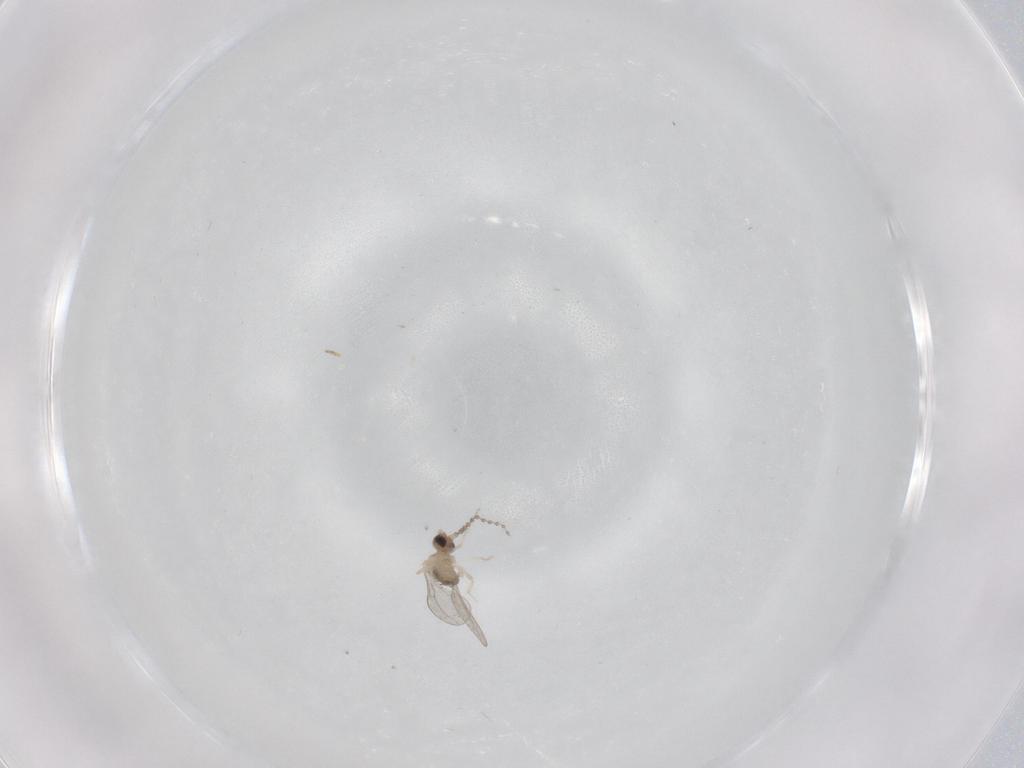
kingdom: Animalia
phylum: Arthropoda
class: Insecta
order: Diptera
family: Cecidomyiidae
